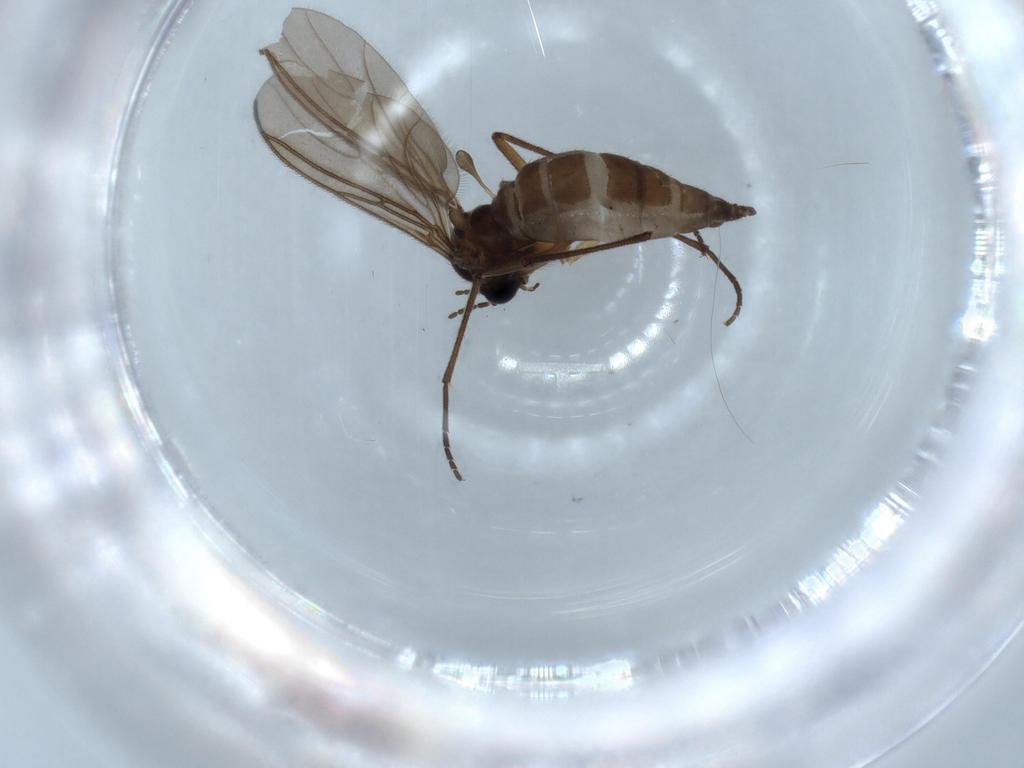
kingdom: Animalia
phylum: Arthropoda
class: Insecta
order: Diptera
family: Sciaridae
